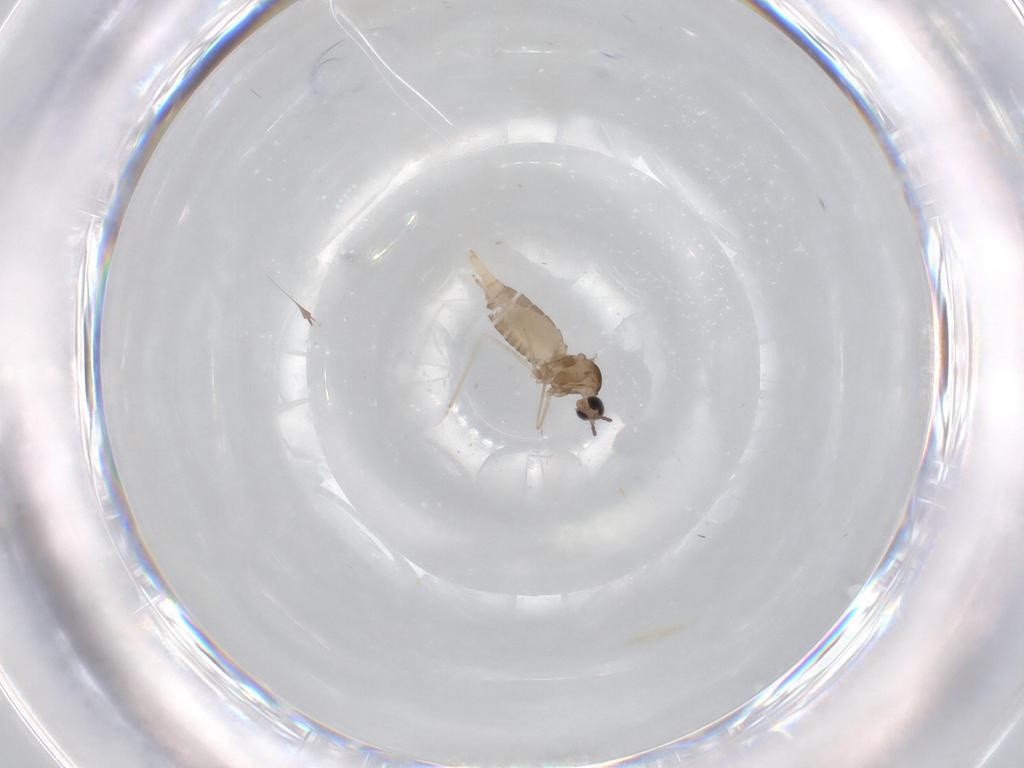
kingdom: Animalia
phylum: Arthropoda
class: Insecta
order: Diptera
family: Cecidomyiidae
